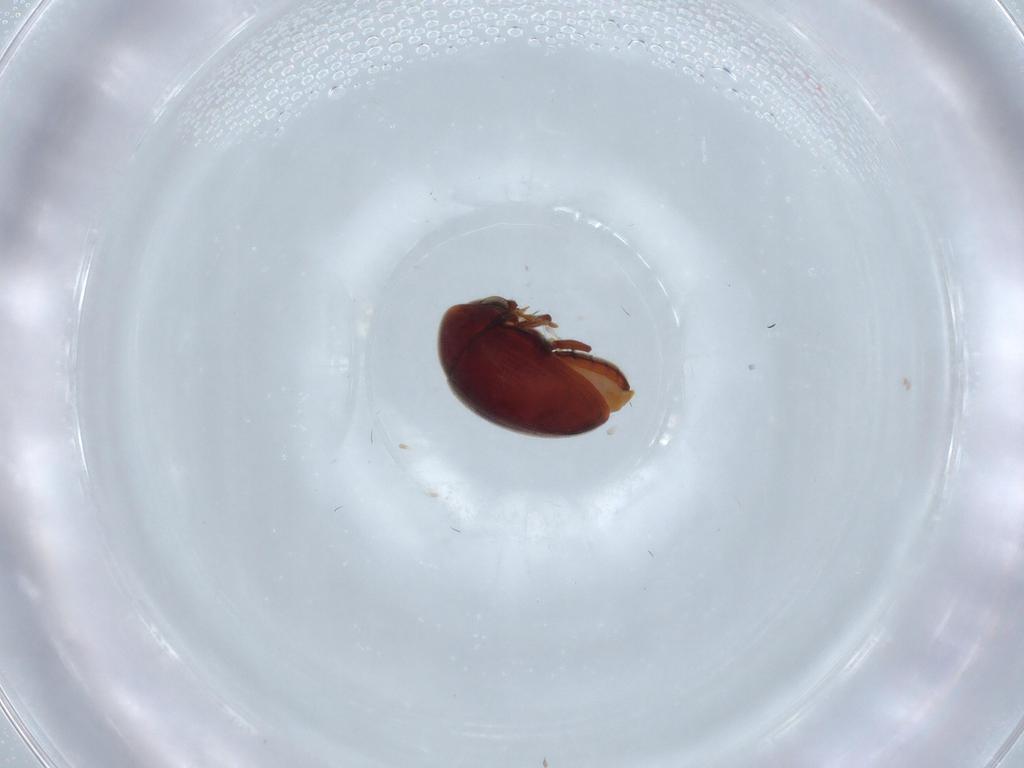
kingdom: Animalia
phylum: Arthropoda
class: Insecta
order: Coleoptera
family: Ptinidae
